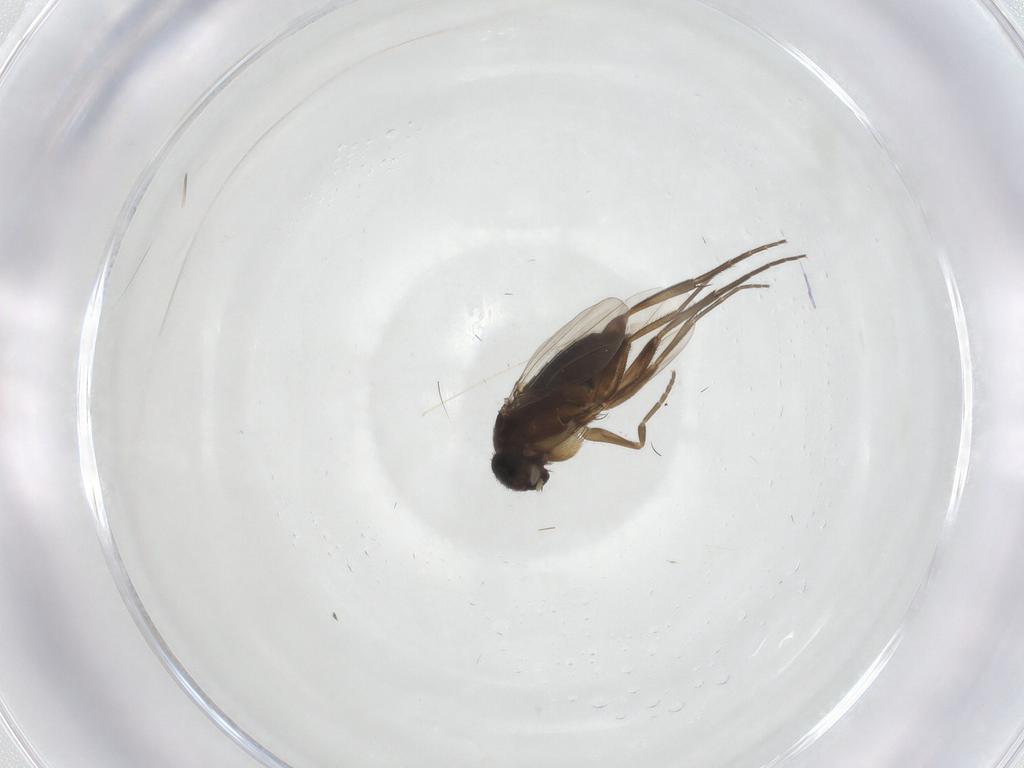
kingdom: Animalia
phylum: Arthropoda
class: Insecta
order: Diptera
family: Phoridae
